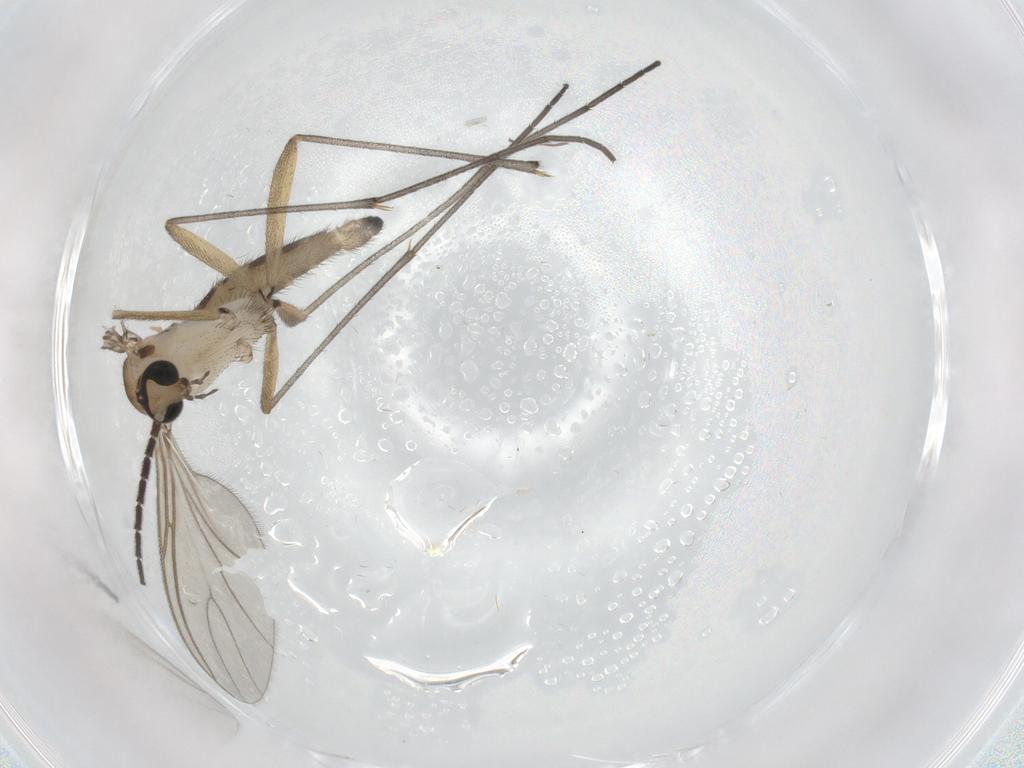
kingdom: Animalia
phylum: Arthropoda
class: Insecta
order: Diptera
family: Sciaridae
